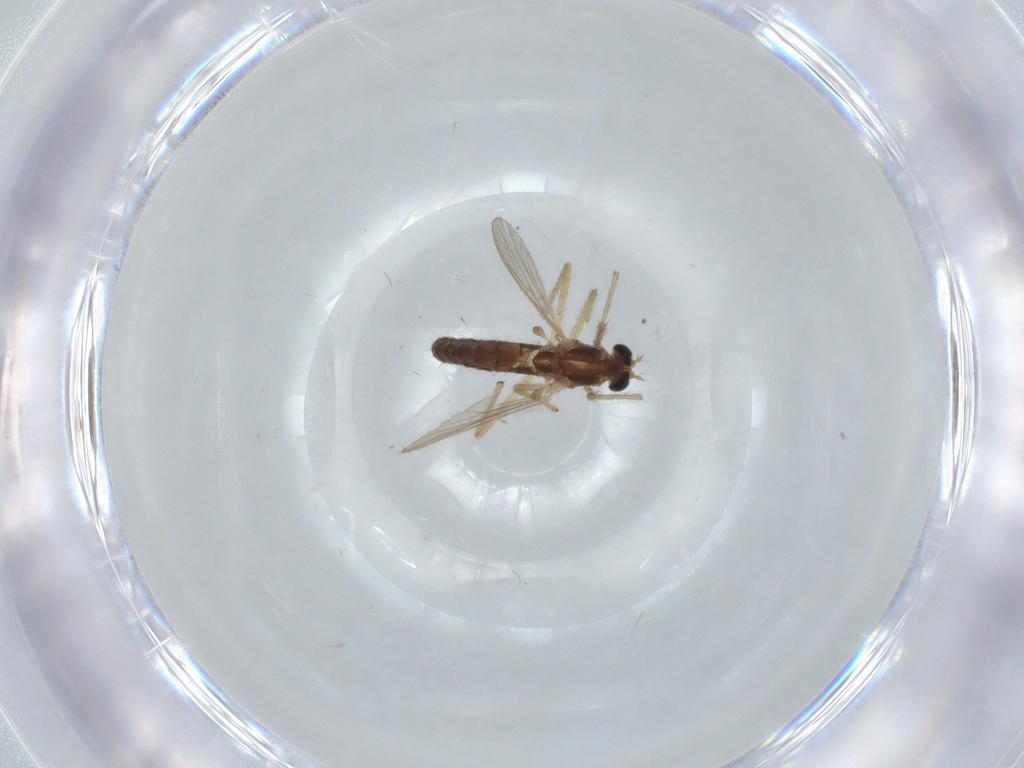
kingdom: Animalia
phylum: Arthropoda
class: Insecta
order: Diptera
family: Chironomidae
